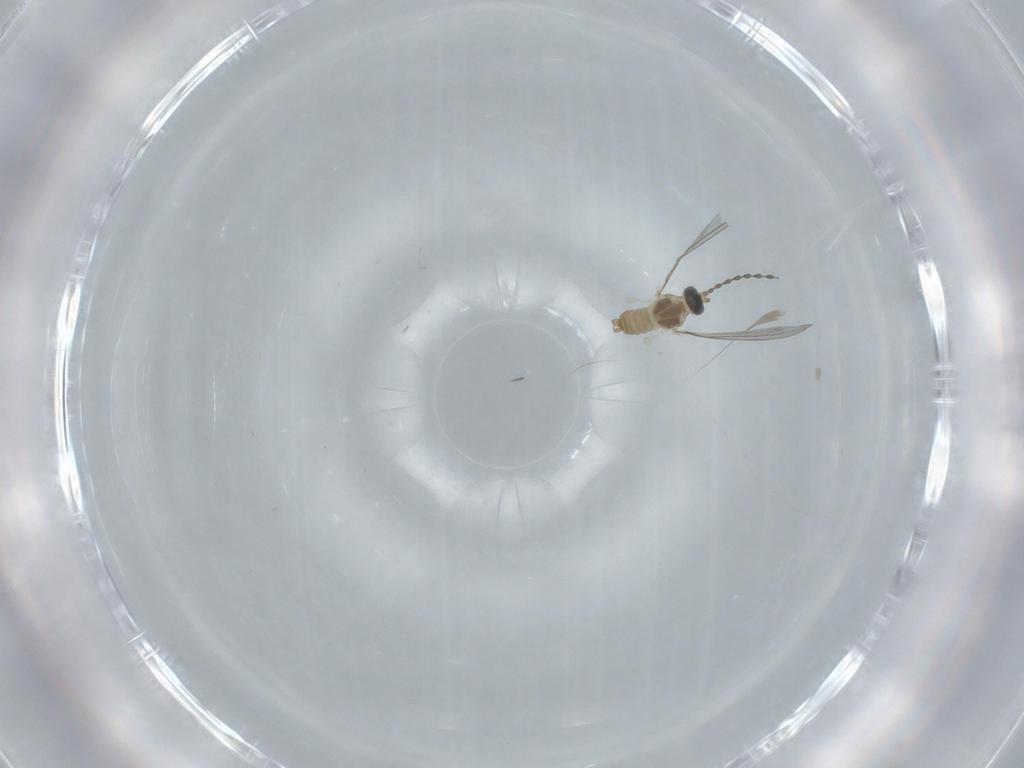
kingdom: Animalia
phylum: Arthropoda
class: Insecta
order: Diptera
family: Cecidomyiidae
